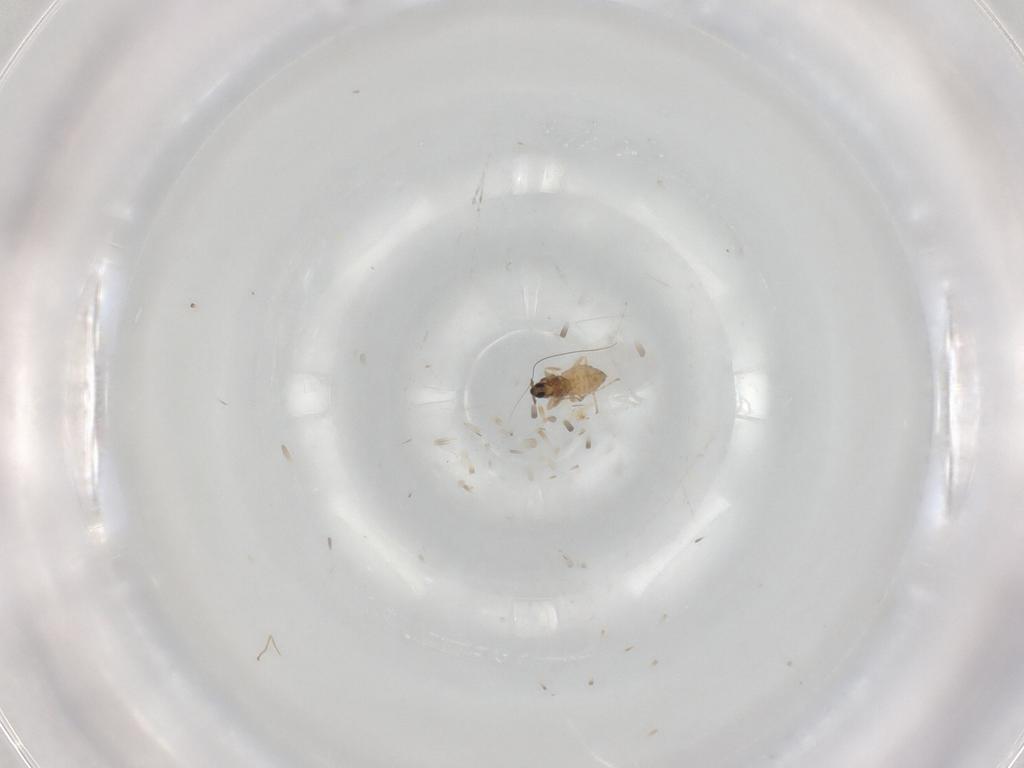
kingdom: Animalia
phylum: Arthropoda
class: Insecta
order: Diptera
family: Cecidomyiidae
